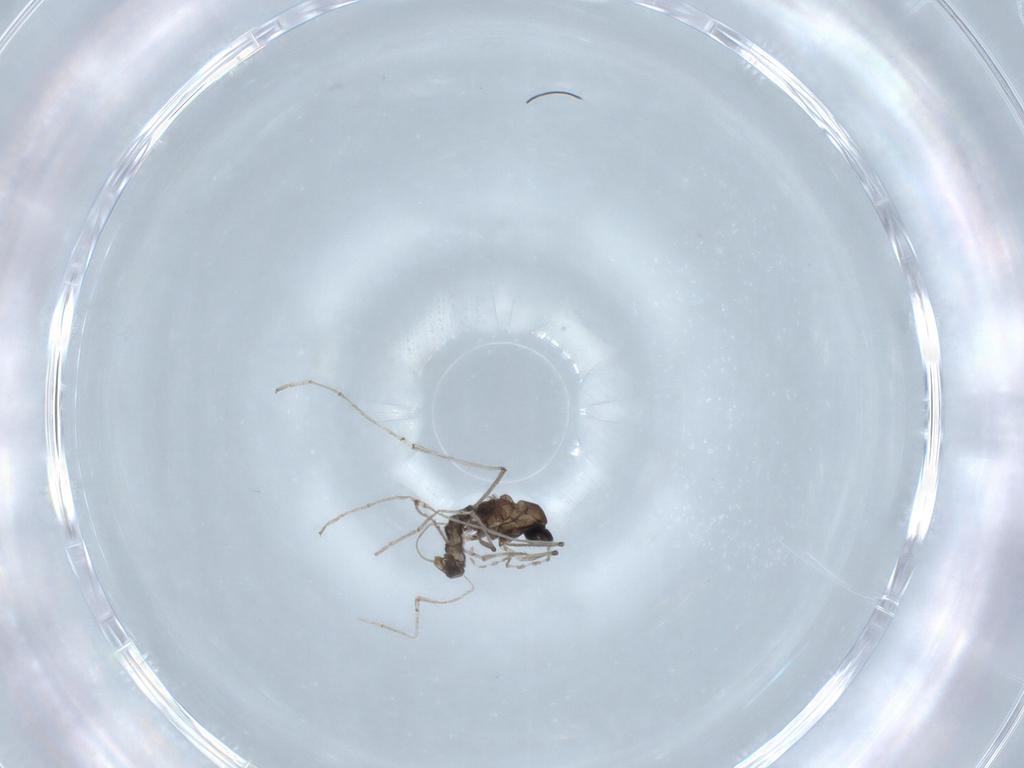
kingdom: Animalia
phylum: Arthropoda
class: Insecta
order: Diptera
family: Cecidomyiidae
